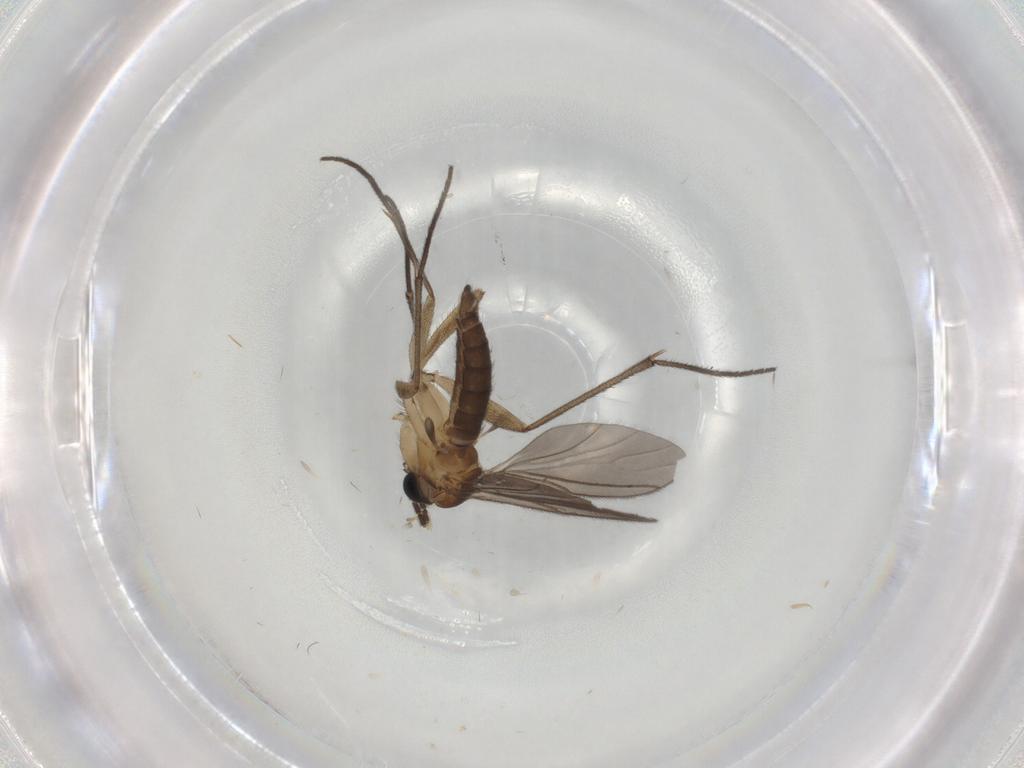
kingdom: Animalia
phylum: Arthropoda
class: Insecta
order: Diptera
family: Sciaridae
